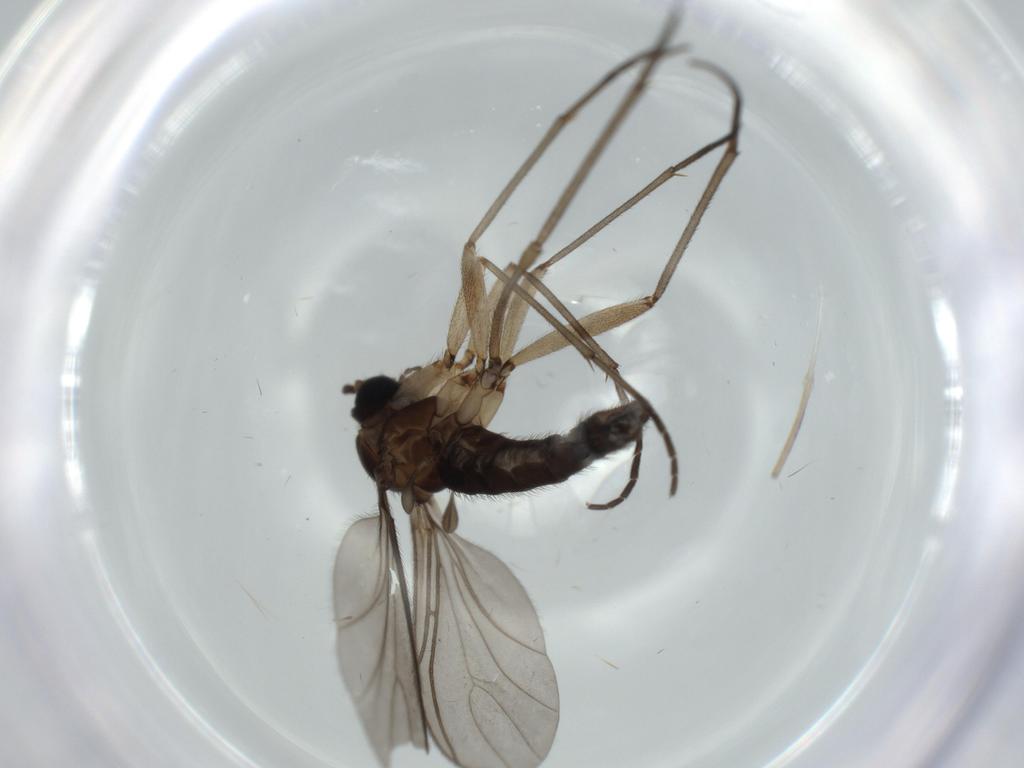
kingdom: Animalia
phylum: Arthropoda
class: Insecta
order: Diptera
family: Sciaridae
